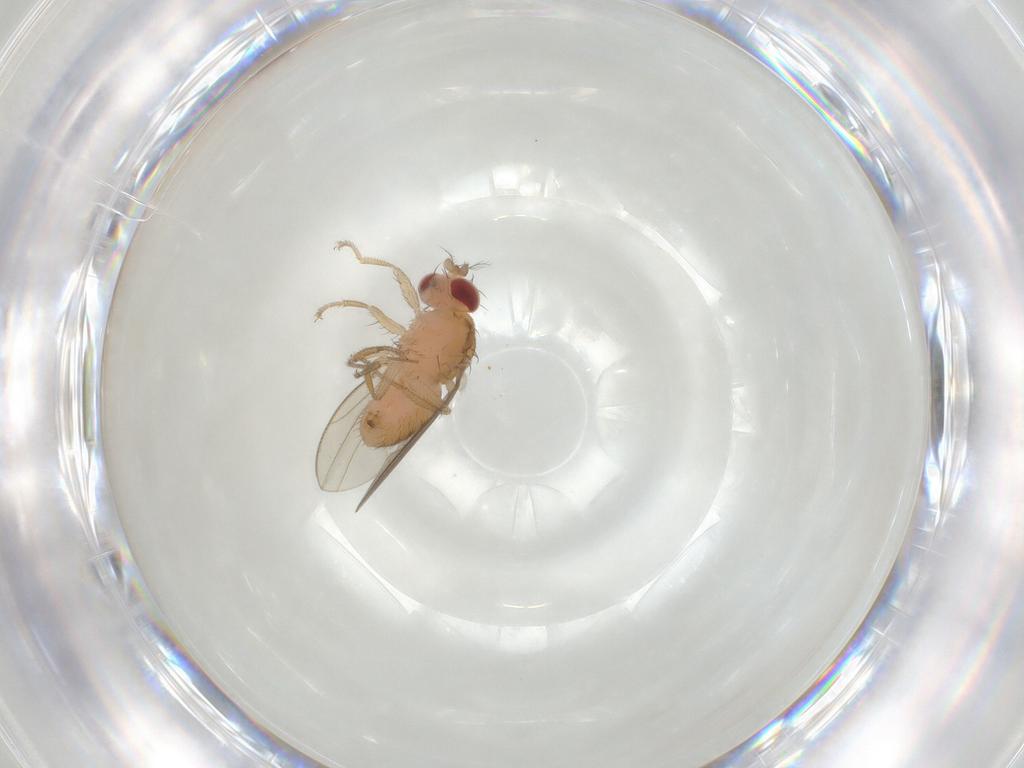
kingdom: Animalia
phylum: Arthropoda
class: Insecta
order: Diptera
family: Drosophilidae
